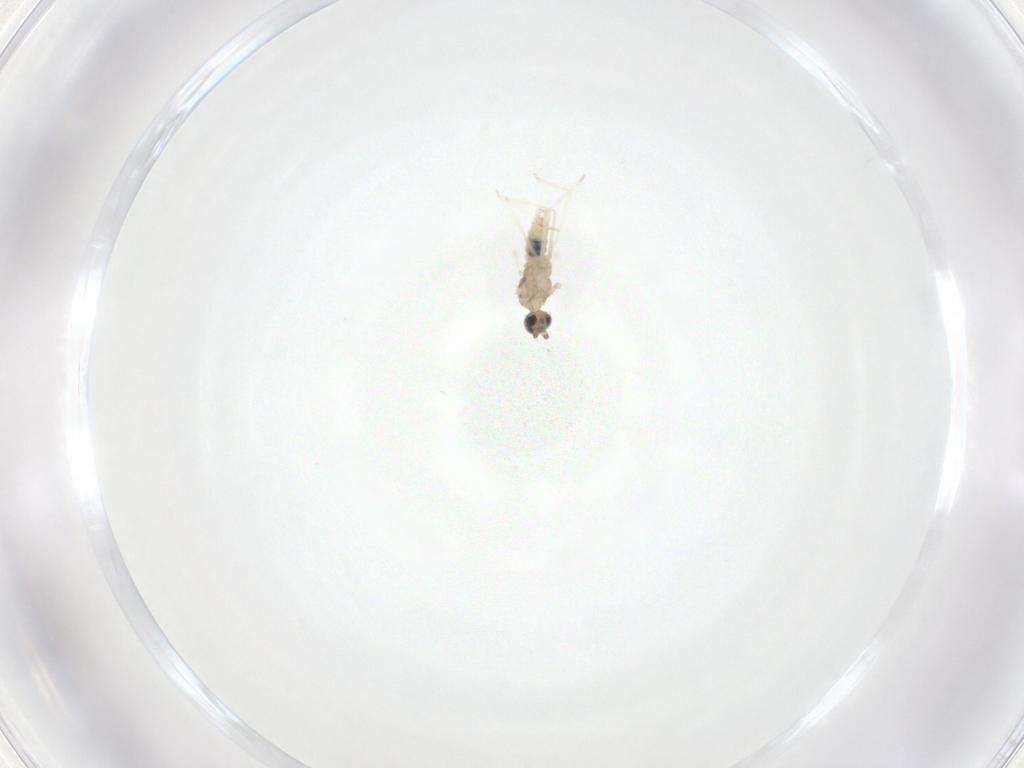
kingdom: Animalia
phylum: Arthropoda
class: Insecta
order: Diptera
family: Cecidomyiidae
